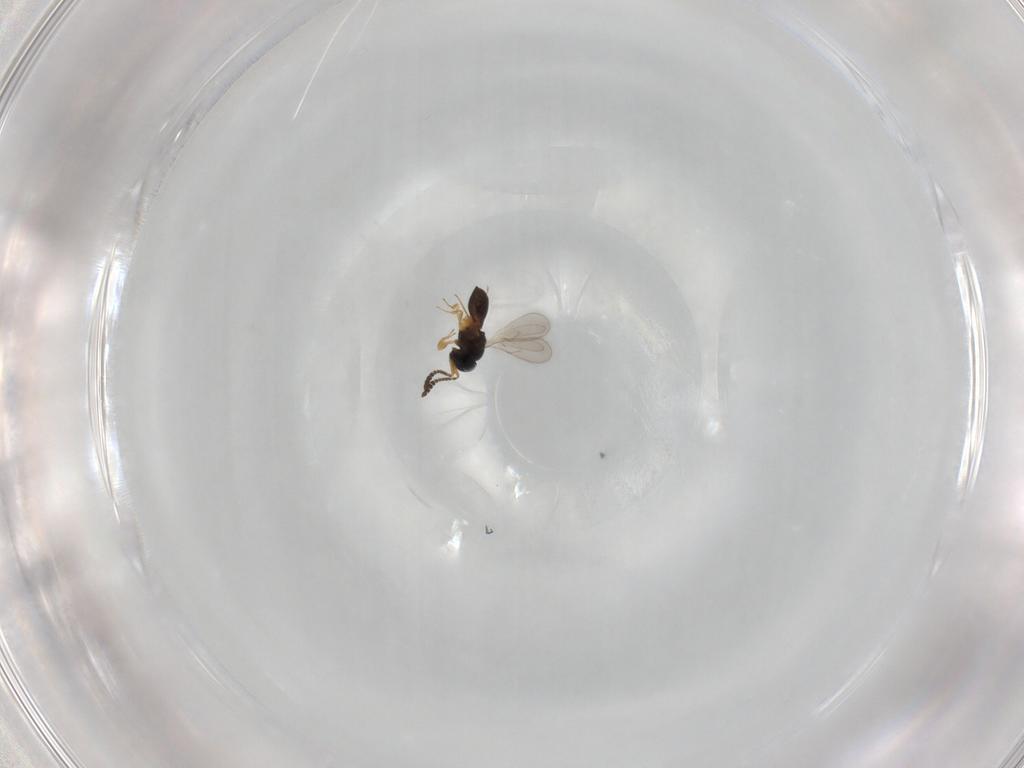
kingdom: Animalia
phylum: Arthropoda
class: Insecta
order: Hymenoptera
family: Scelionidae
